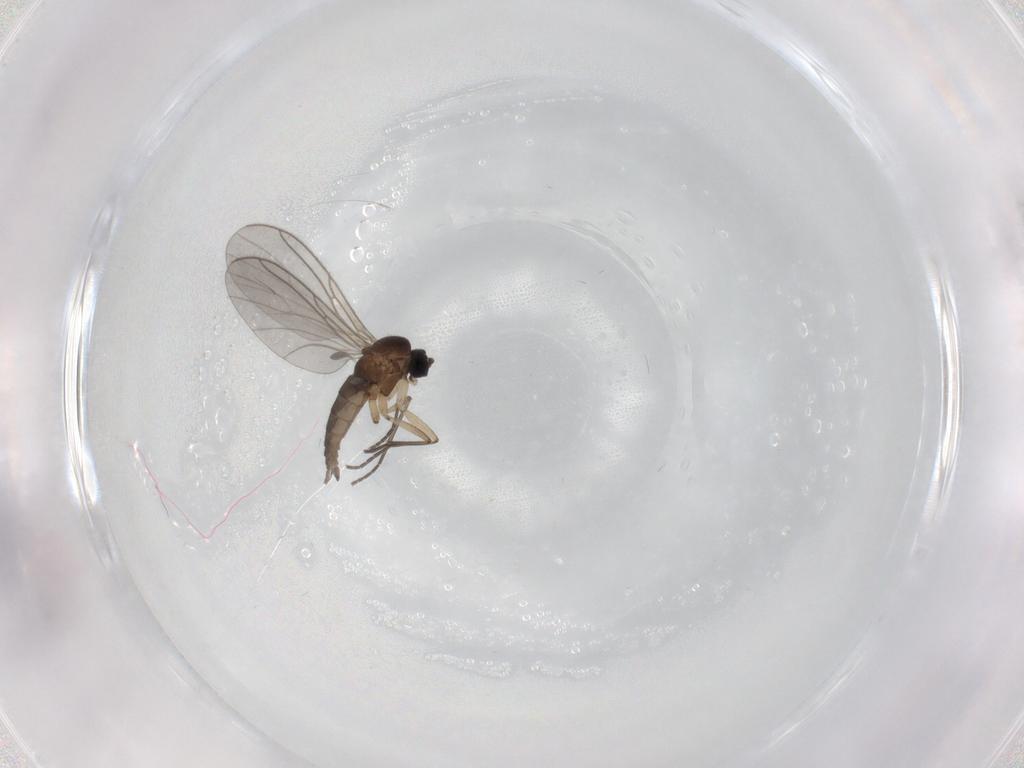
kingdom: Animalia
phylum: Arthropoda
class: Insecta
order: Diptera
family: Sciaridae
